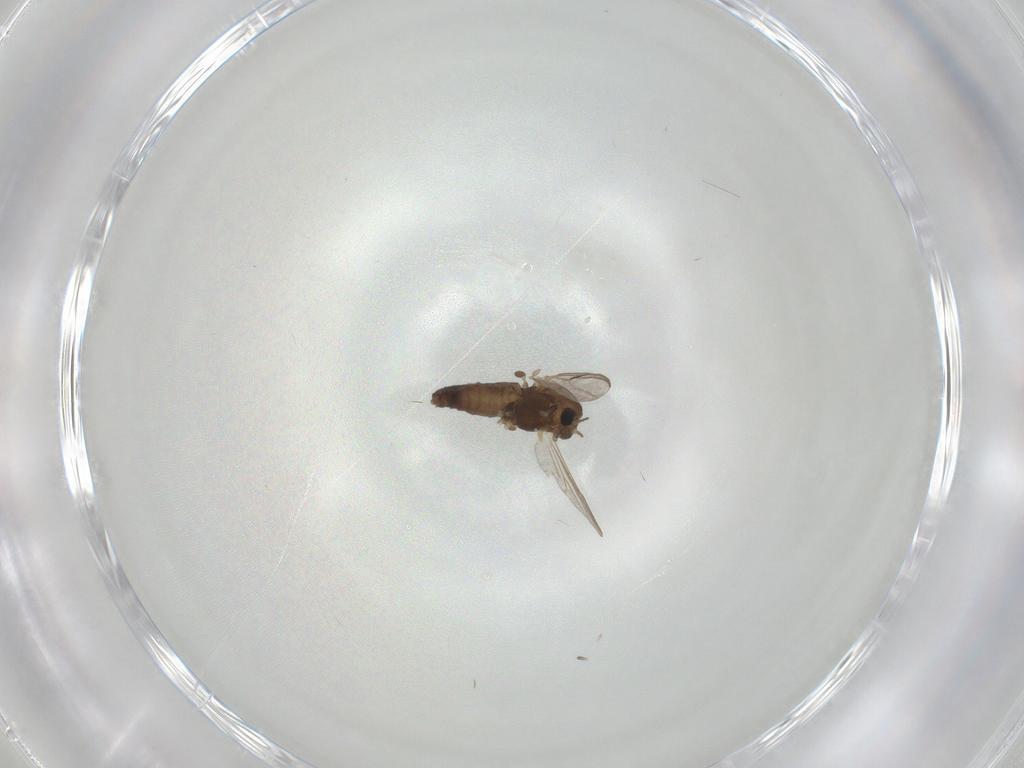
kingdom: Animalia
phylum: Arthropoda
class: Insecta
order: Diptera
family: Chironomidae
